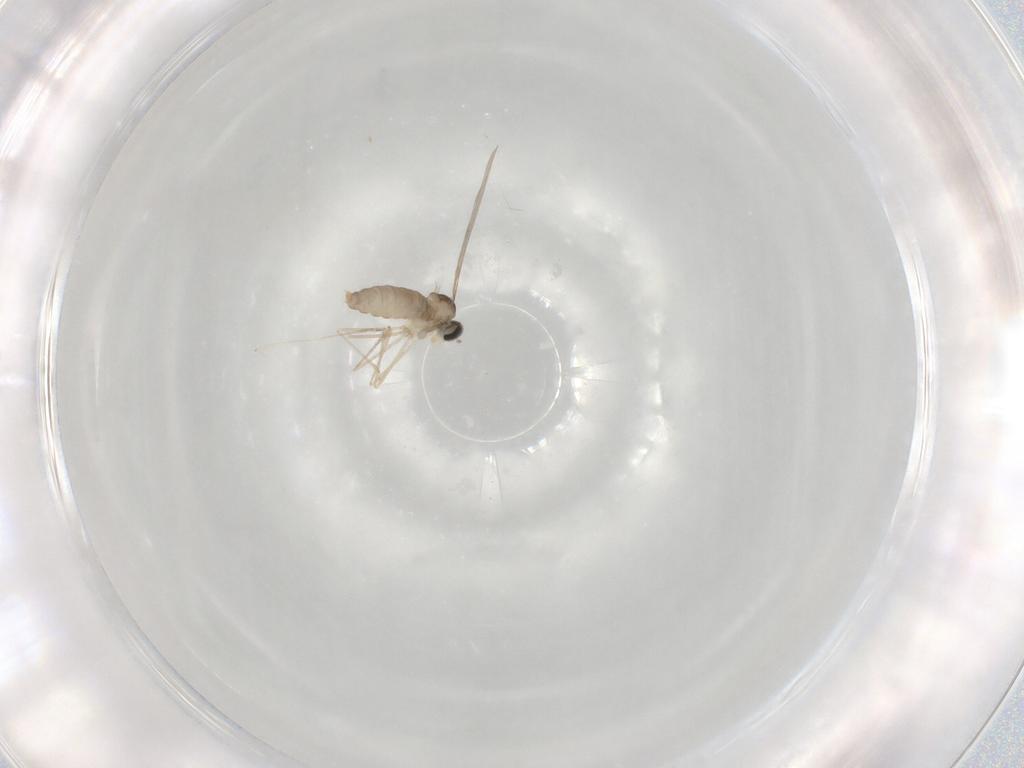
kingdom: Animalia
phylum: Arthropoda
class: Insecta
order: Diptera
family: Cecidomyiidae
